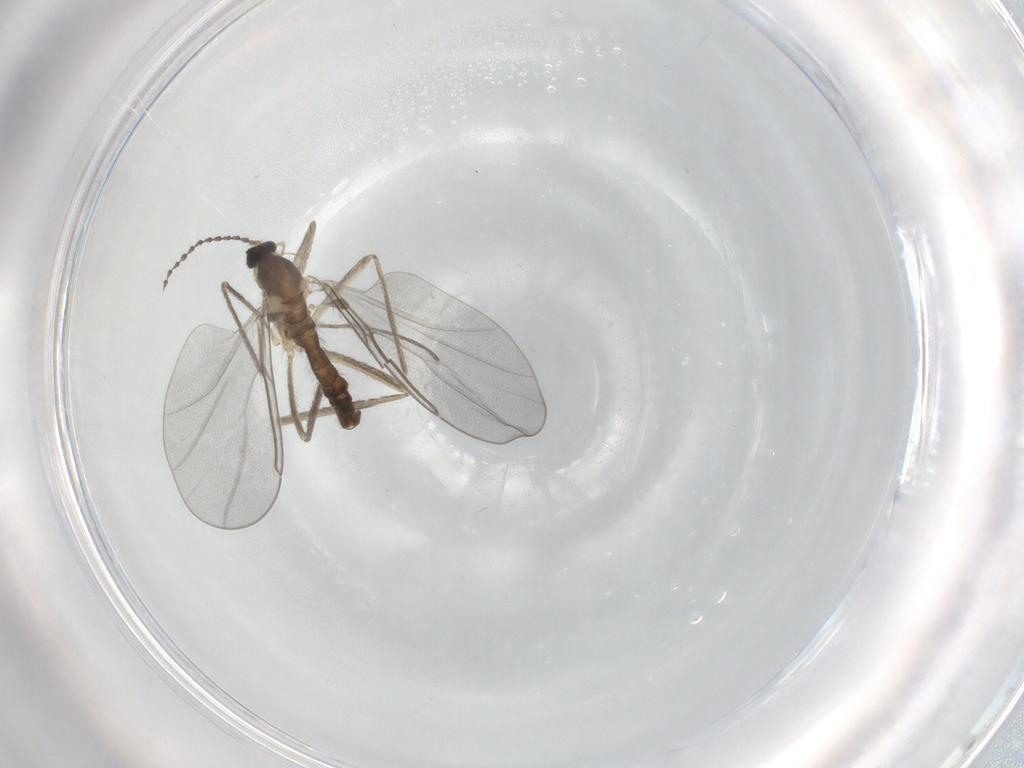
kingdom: Animalia
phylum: Arthropoda
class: Insecta
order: Diptera
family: Cecidomyiidae
